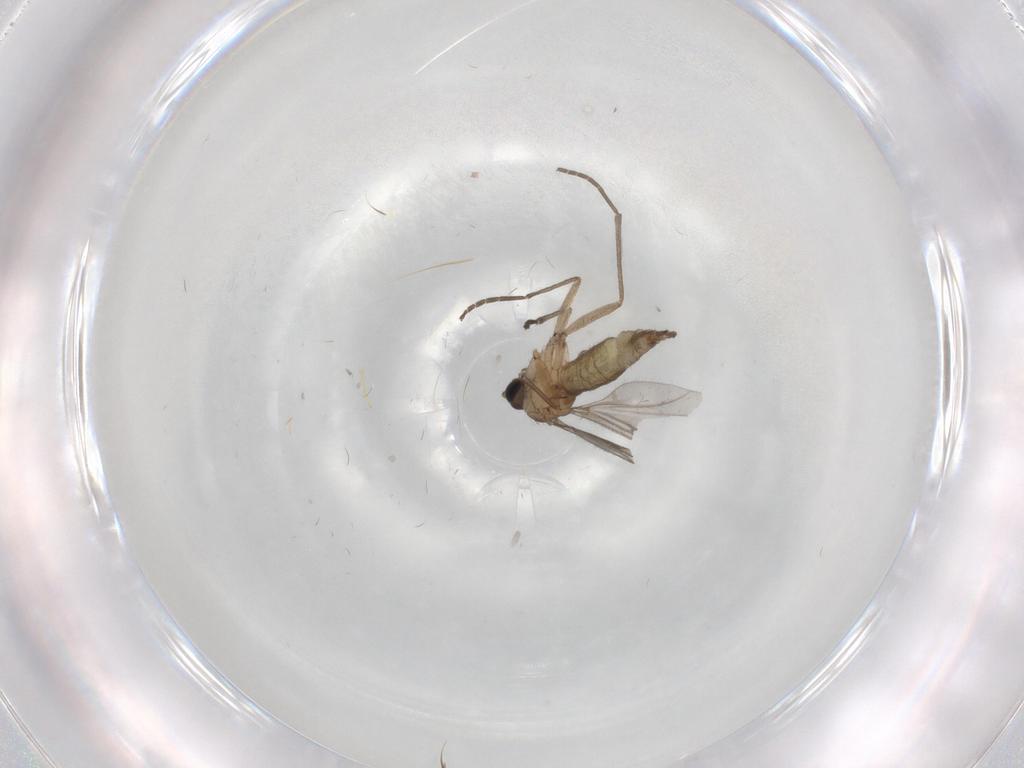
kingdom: Animalia
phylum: Arthropoda
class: Insecta
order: Diptera
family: Sciaridae
